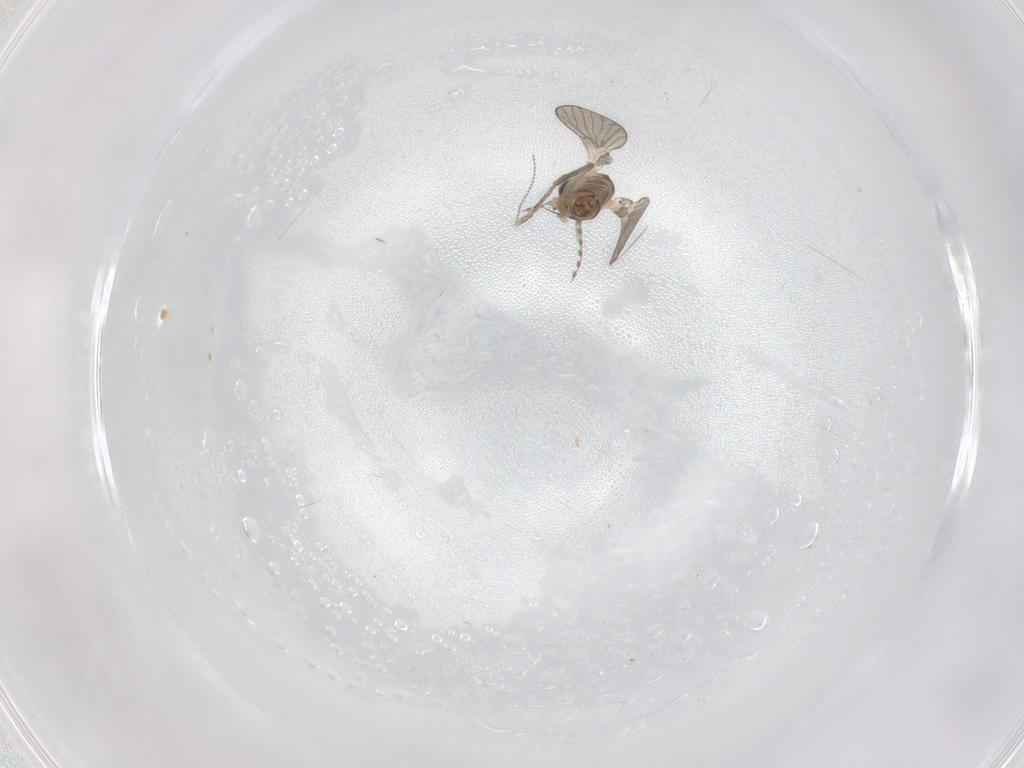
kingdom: Animalia
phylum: Arthropoda
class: Insecta
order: Diptera
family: Psychodidae
